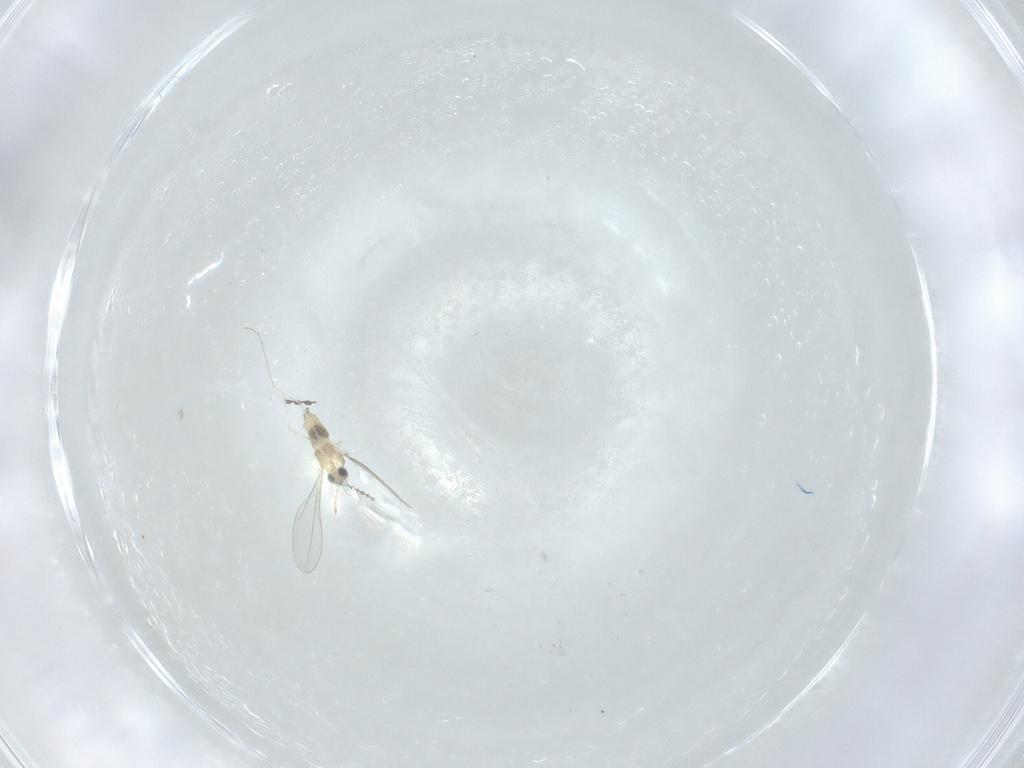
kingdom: Animalia
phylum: Arthropoda
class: Insecta
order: Diptera
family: Cecidomyiidae
